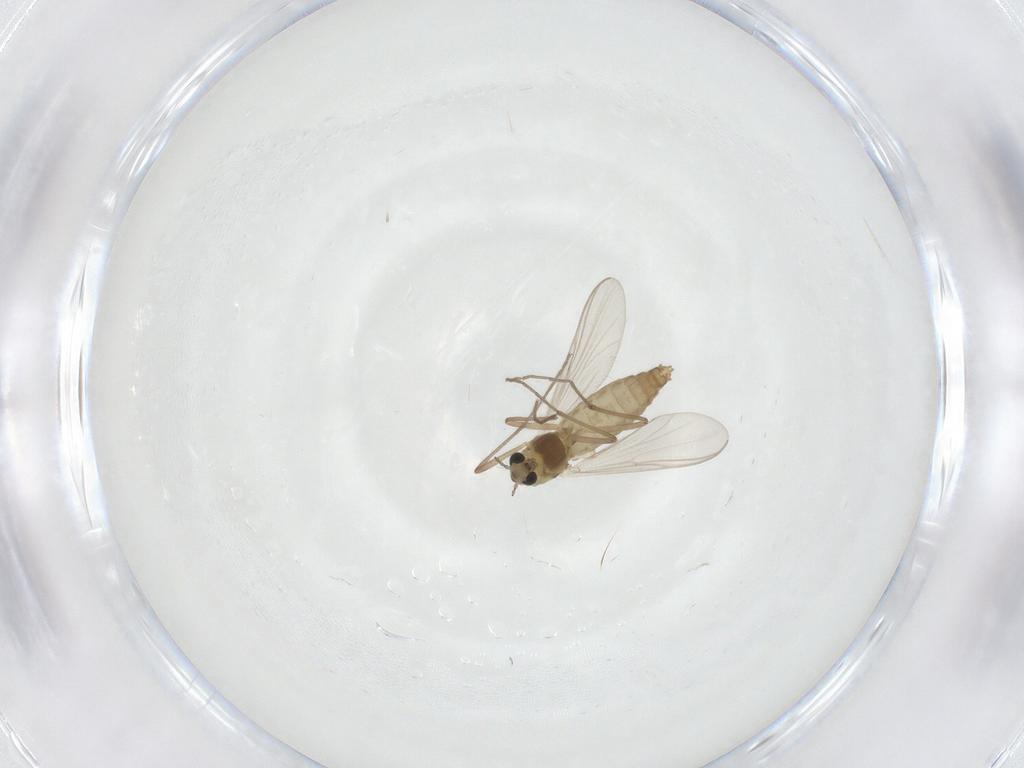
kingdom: Animalia
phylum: Arthropoda
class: Insecta
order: Diptera
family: Chironomidae
